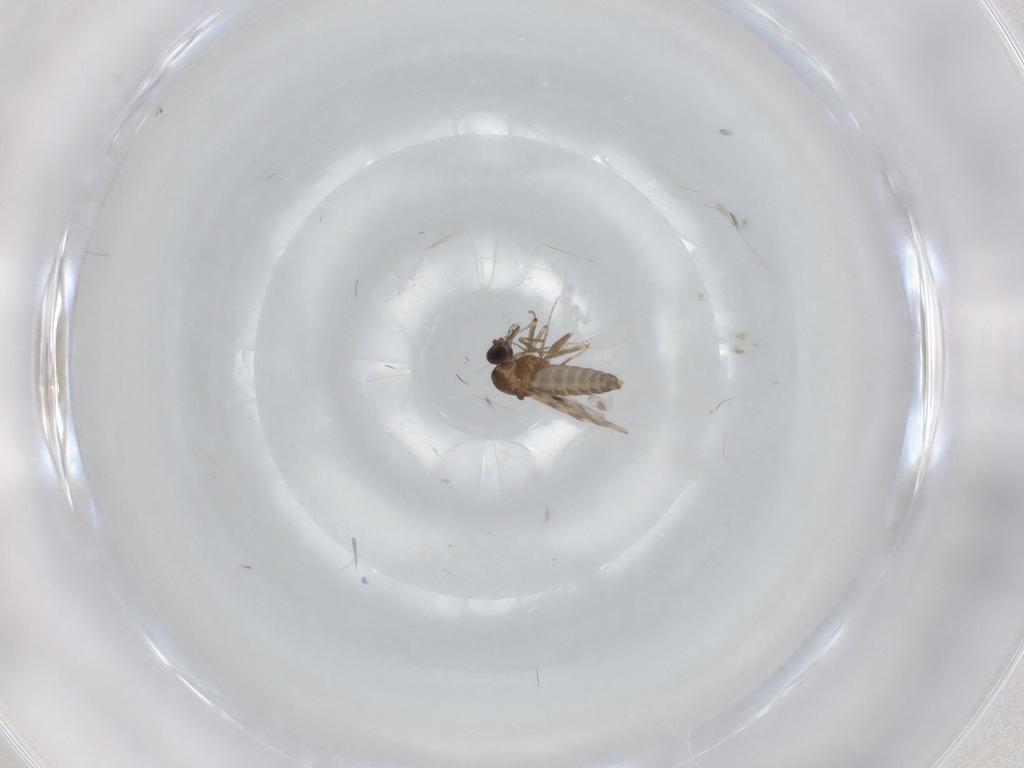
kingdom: Animalia
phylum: Arthropoda
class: Insecta
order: Diptera
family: Ceratopogonidae
